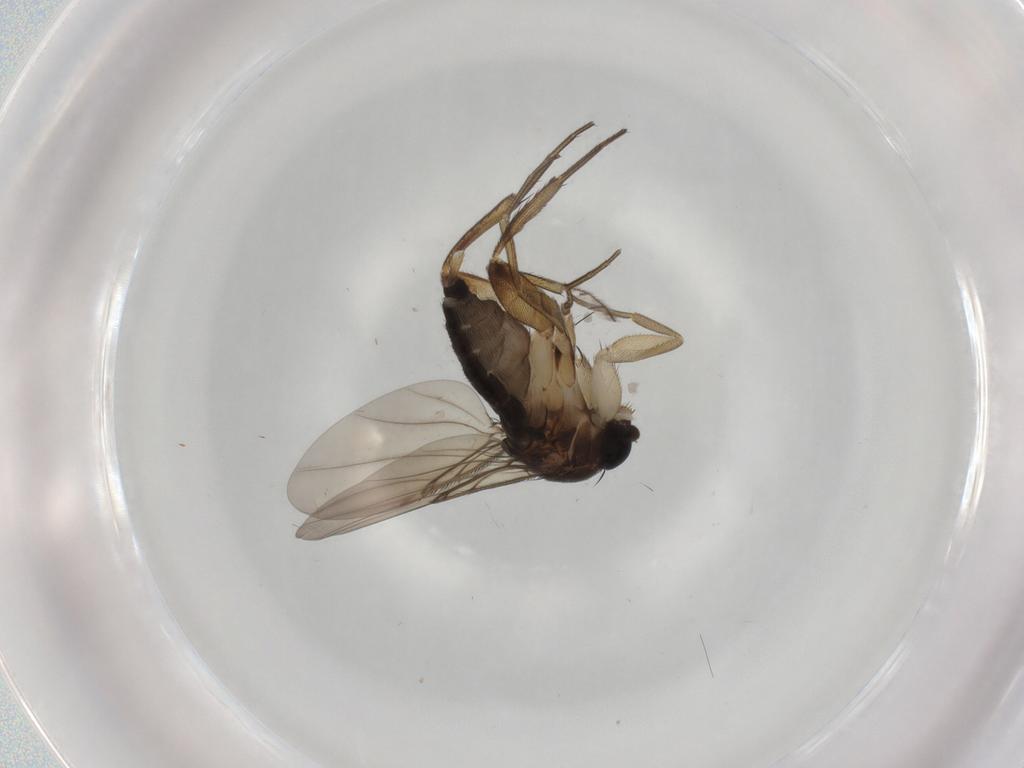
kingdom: Animalia
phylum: Arthropoda
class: Insecta
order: Diptera
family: Phoridae
